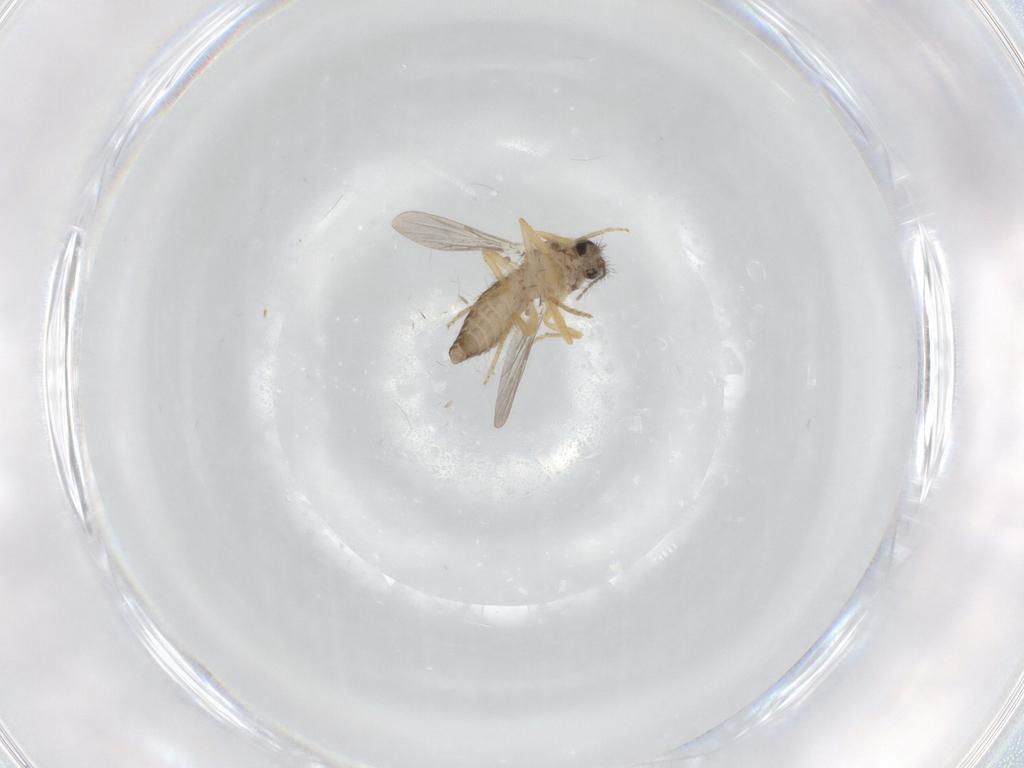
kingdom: Animalia
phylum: Arthropoda
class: Insecta
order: Diptera
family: Ceratopogonidae
